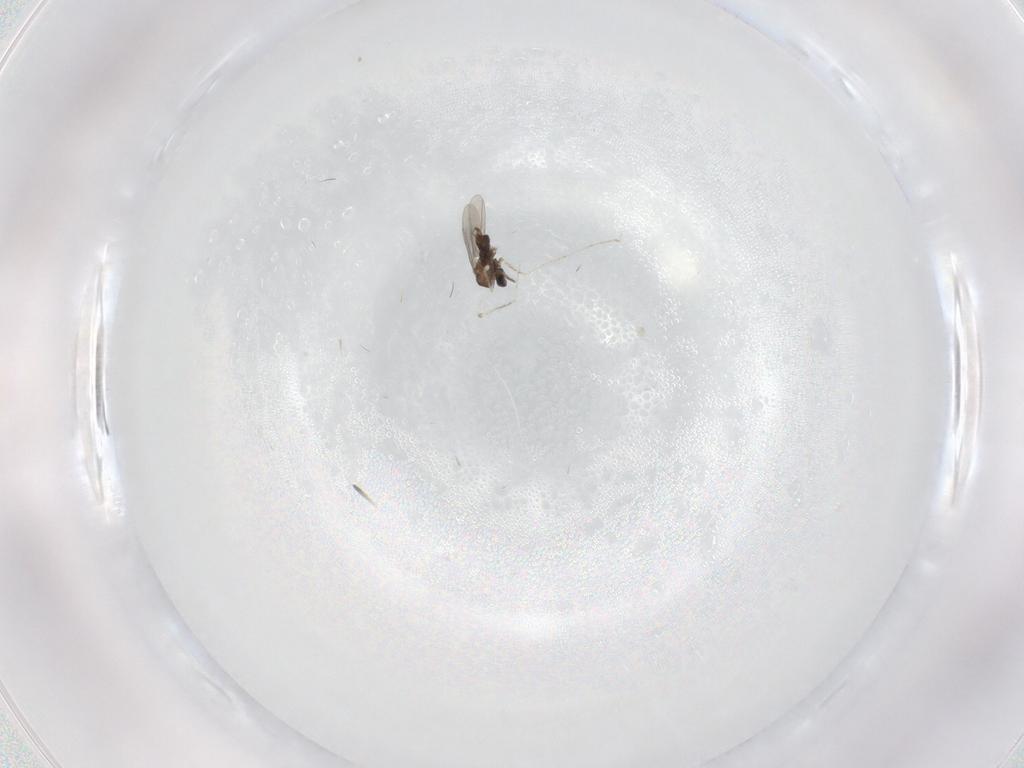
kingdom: Animalia
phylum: Arthropoda
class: Insecta
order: Diptera
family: Cecidomyiidae
